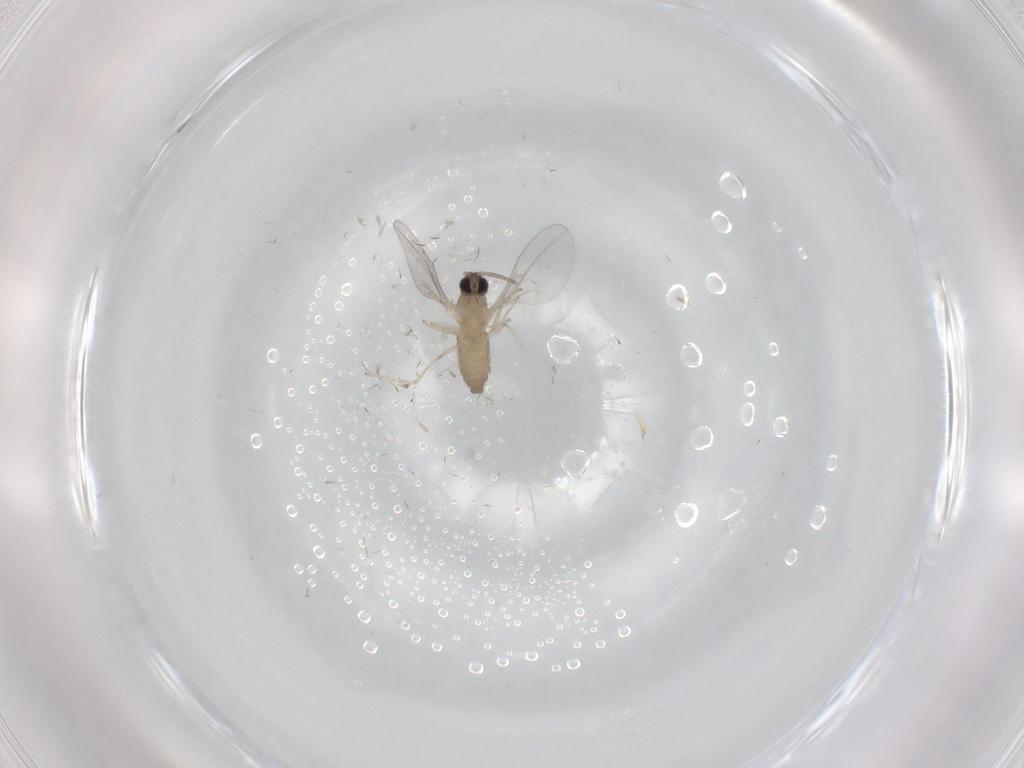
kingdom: Animalia
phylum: Arthropoda
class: Insecta
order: Diptera
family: Cecidomyiidae
